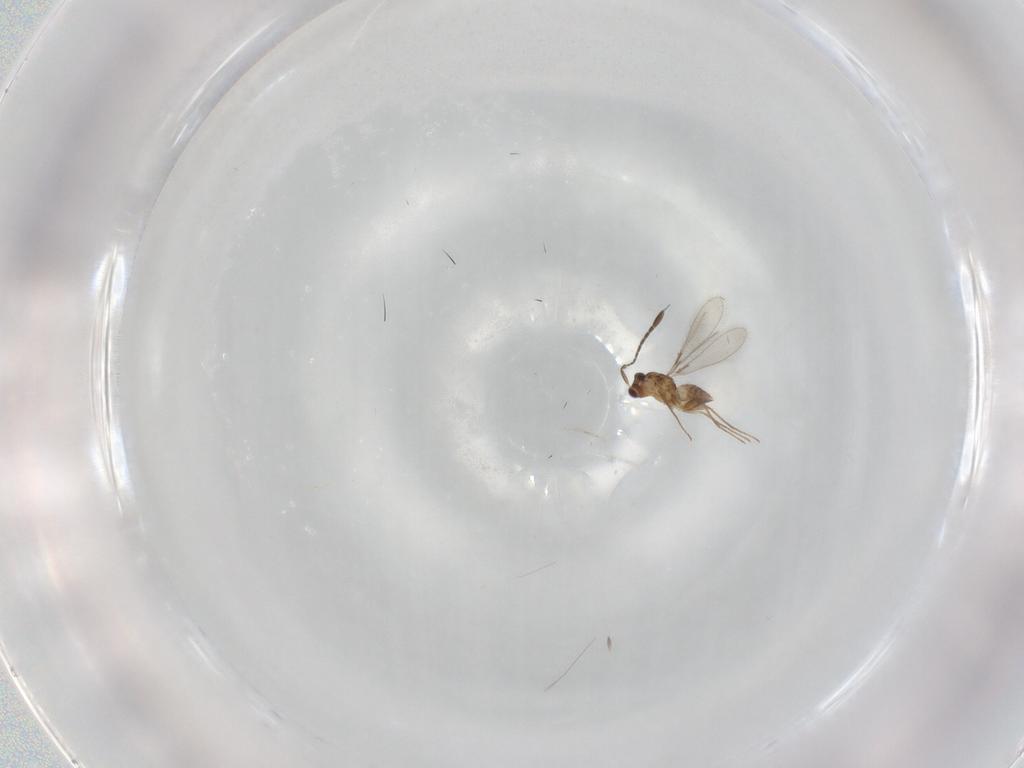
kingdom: Animalia
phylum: Arthropoda
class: Insecta
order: Hymenoptera
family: Mymaridae
